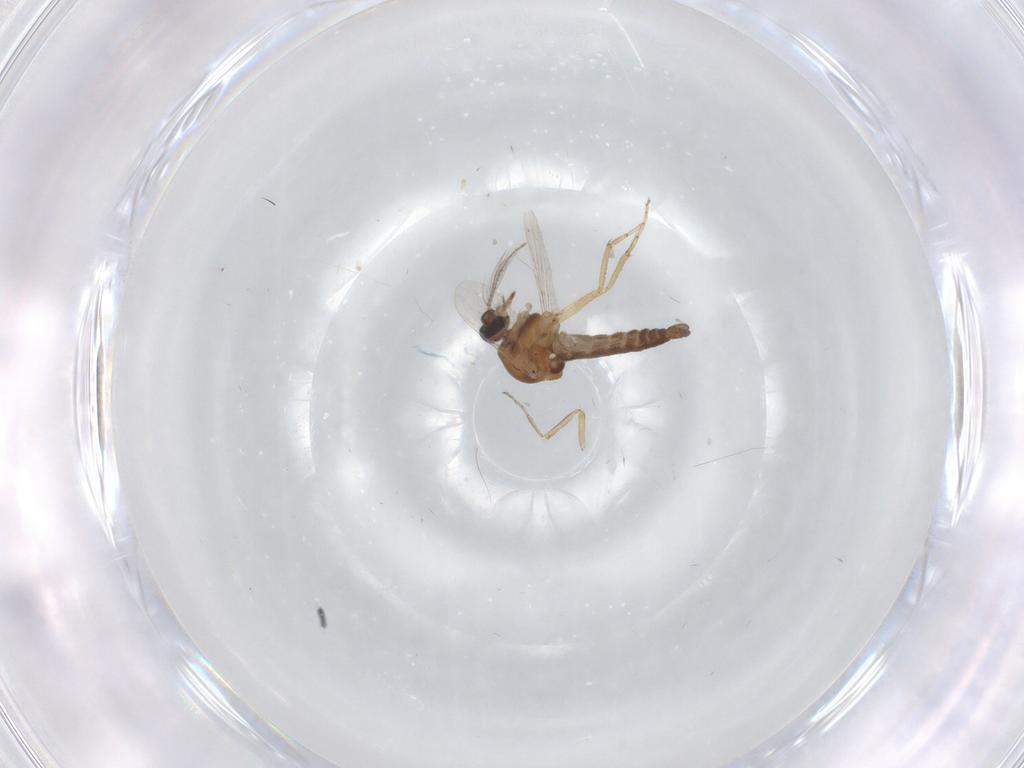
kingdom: Animalia
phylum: Arthropoda
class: Insecta
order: Diptera
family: Ceratopogonidae
